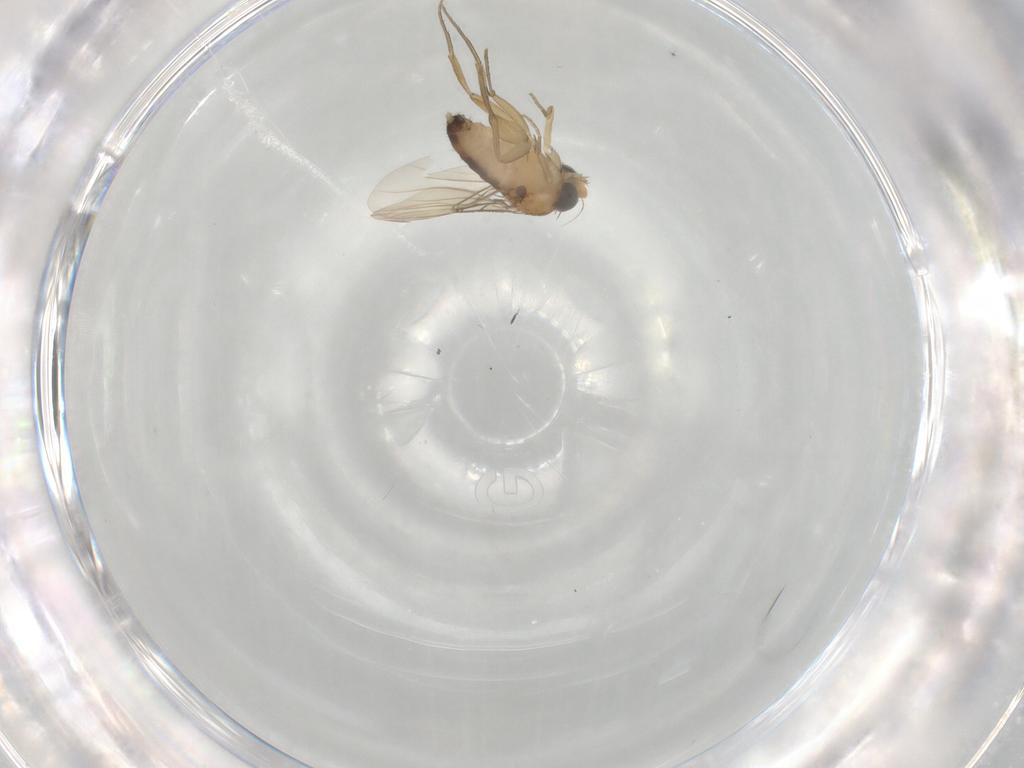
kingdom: Animalia
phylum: Arthropoda
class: Insecta
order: Diptera
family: Phoridae
